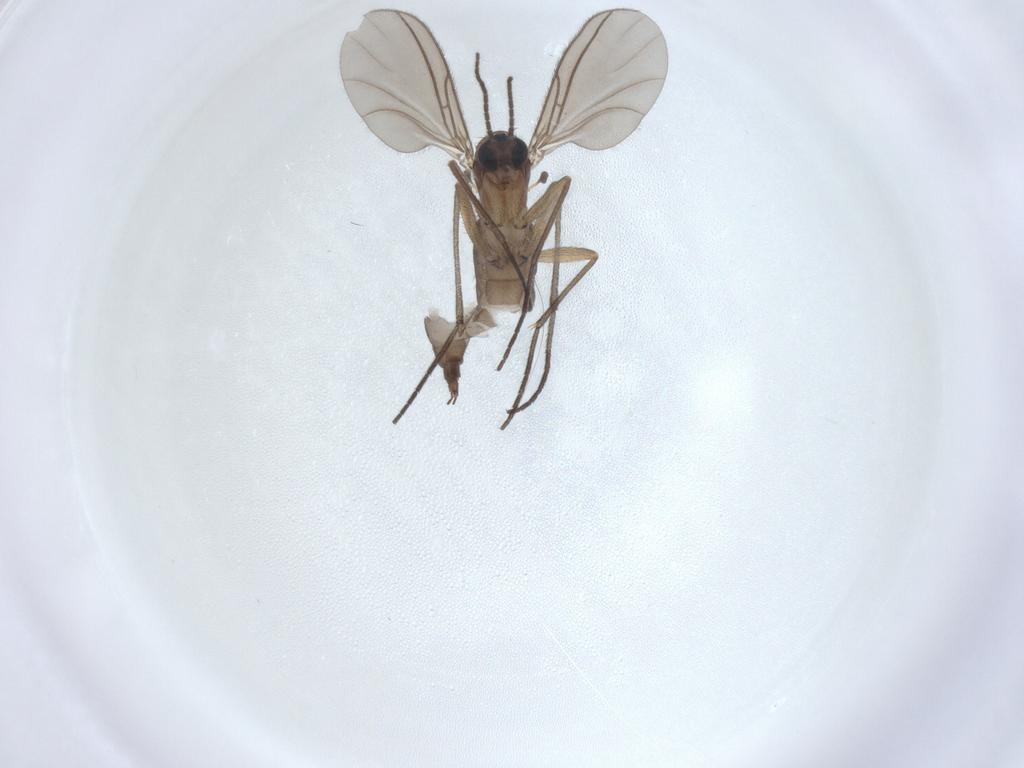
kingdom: Animalia
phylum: Arthropoda
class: Insecta
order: Diptera
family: Sciaridae
